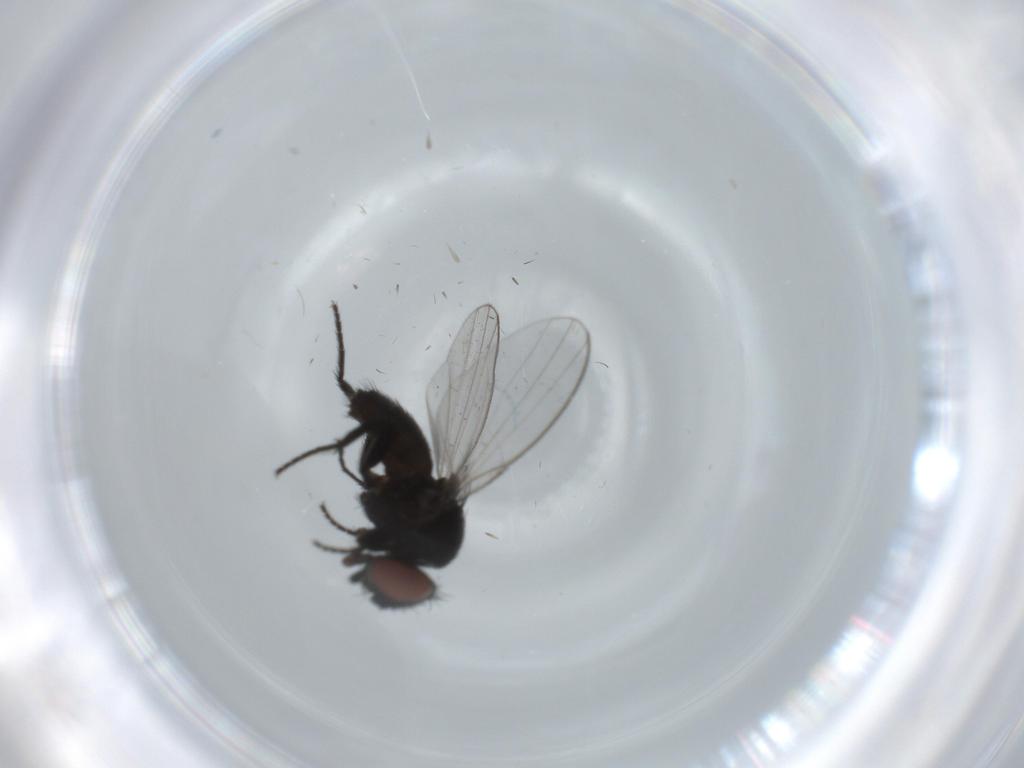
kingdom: Animalia
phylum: Arthropoda
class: Insecta
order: Diptera
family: Milichiidae
